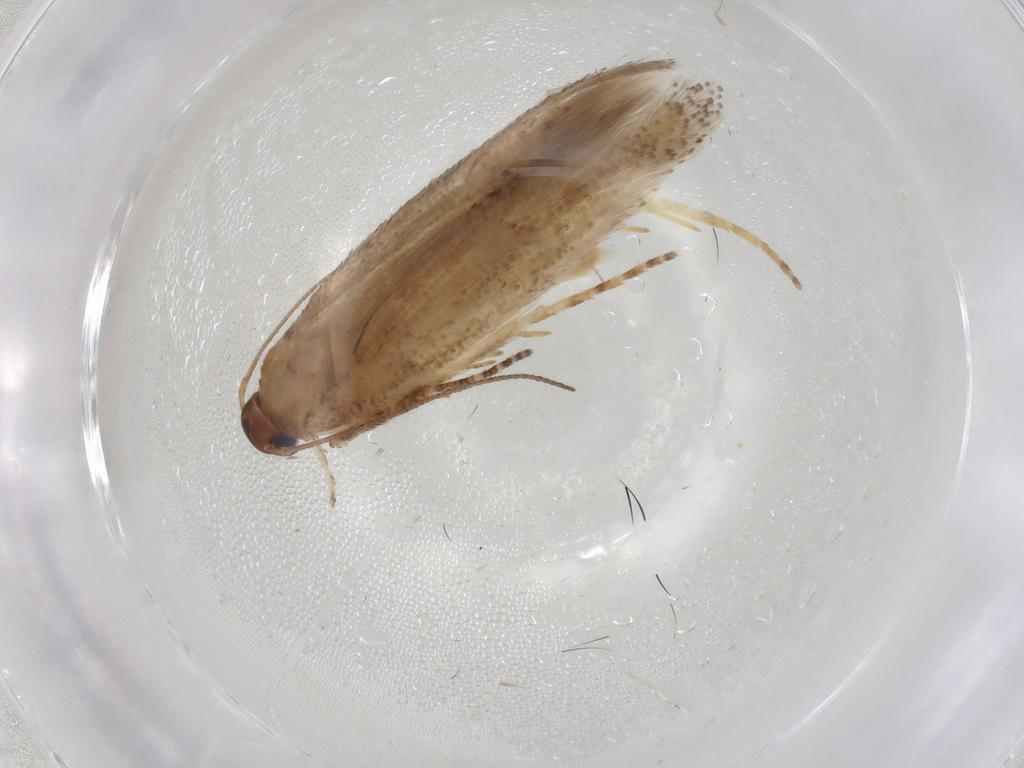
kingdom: Animalia
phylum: Arthropoda
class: Insecta
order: Lepidoptera
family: Gelechiidae
